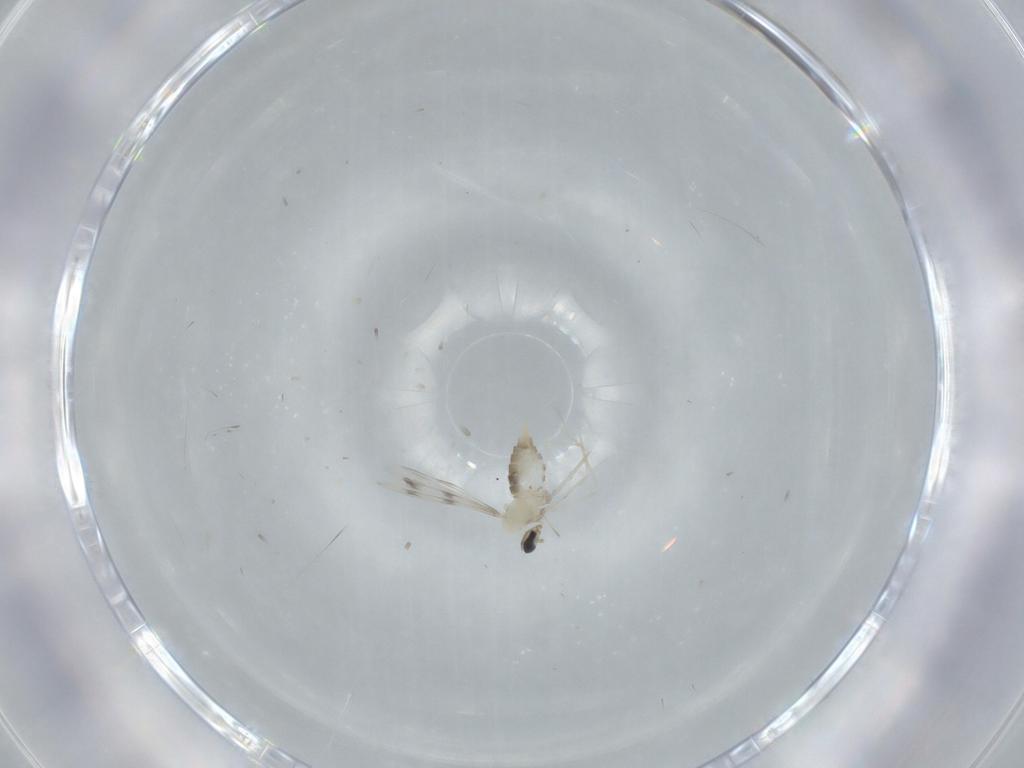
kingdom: Animalia
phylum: Arthropoda
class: Insecta
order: Diptera
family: Cecidomyiidae
